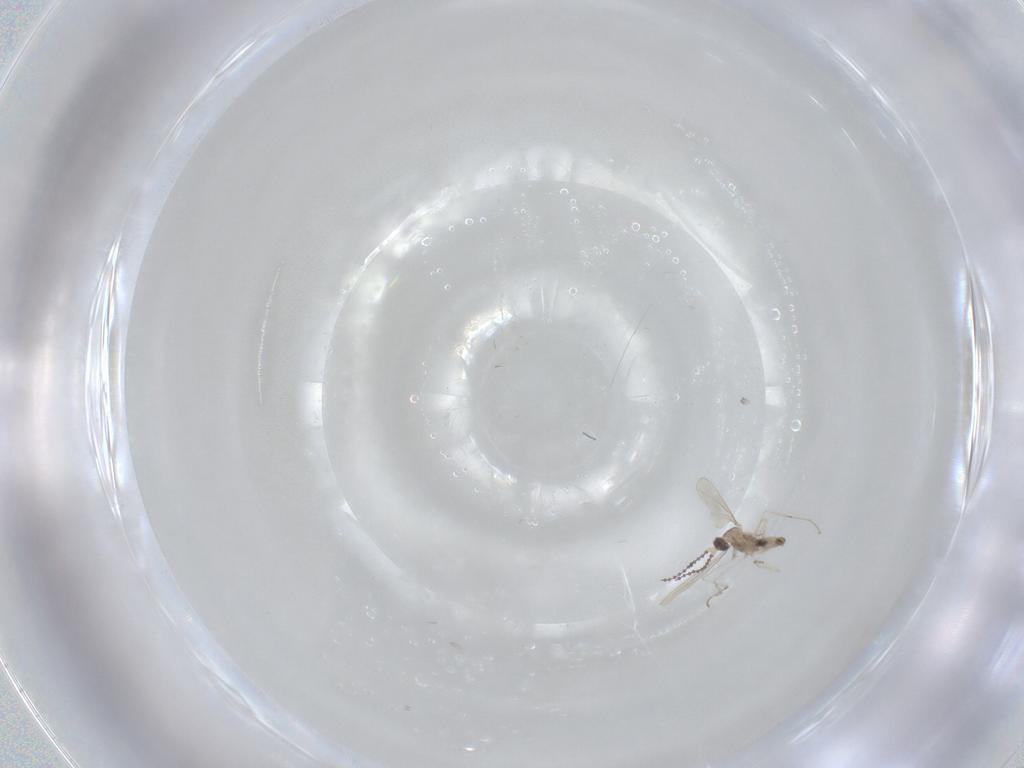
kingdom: Animalia
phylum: Arthropoda
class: Insecta
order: Diptera
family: Cecidomyiidae
